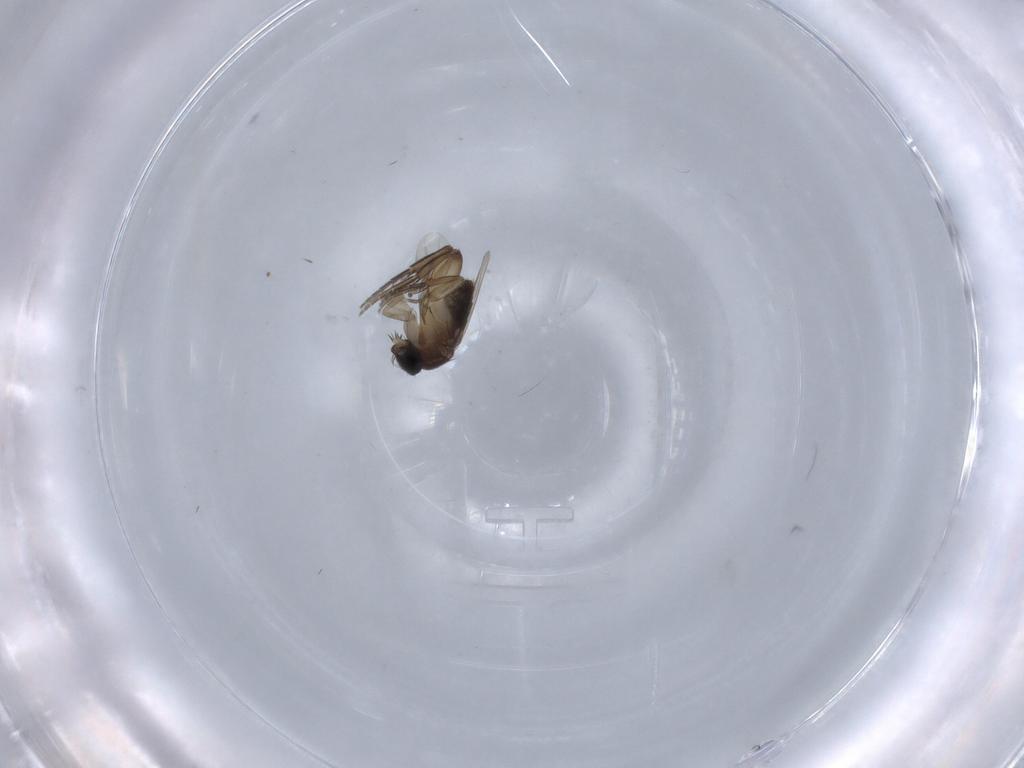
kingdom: Animalia
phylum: Arthropoda
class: Insecta
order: Diptera
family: Phoridae
